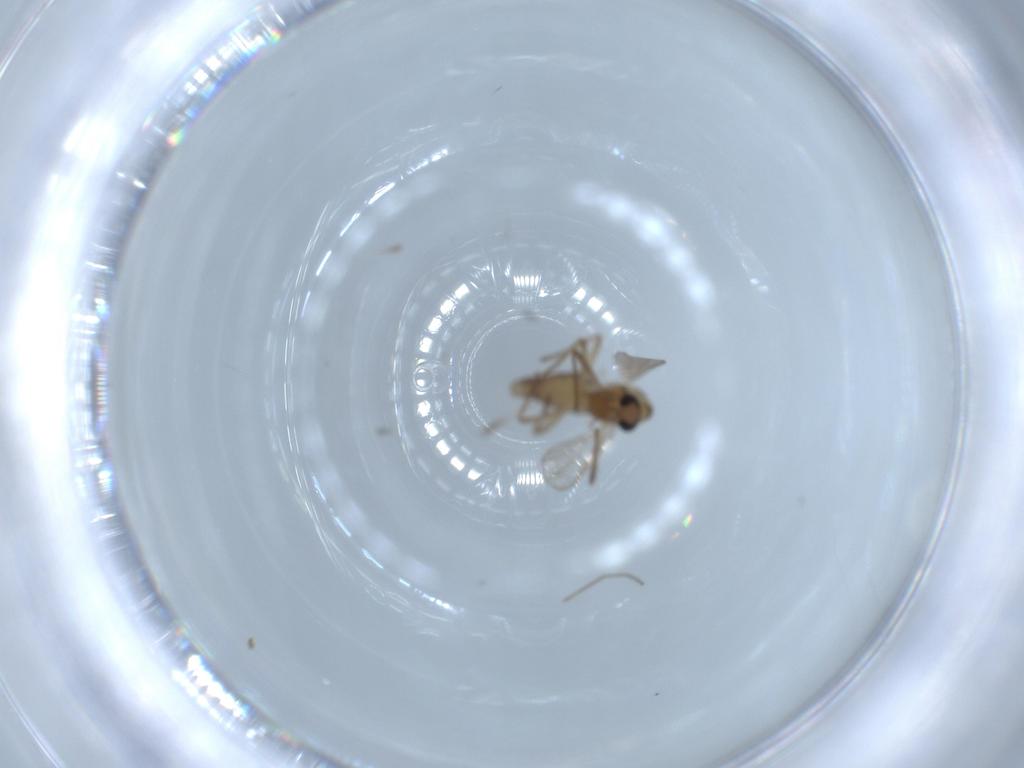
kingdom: Animalia
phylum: Arthropoda
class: Insecta
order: Diptera
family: Chironomidae
